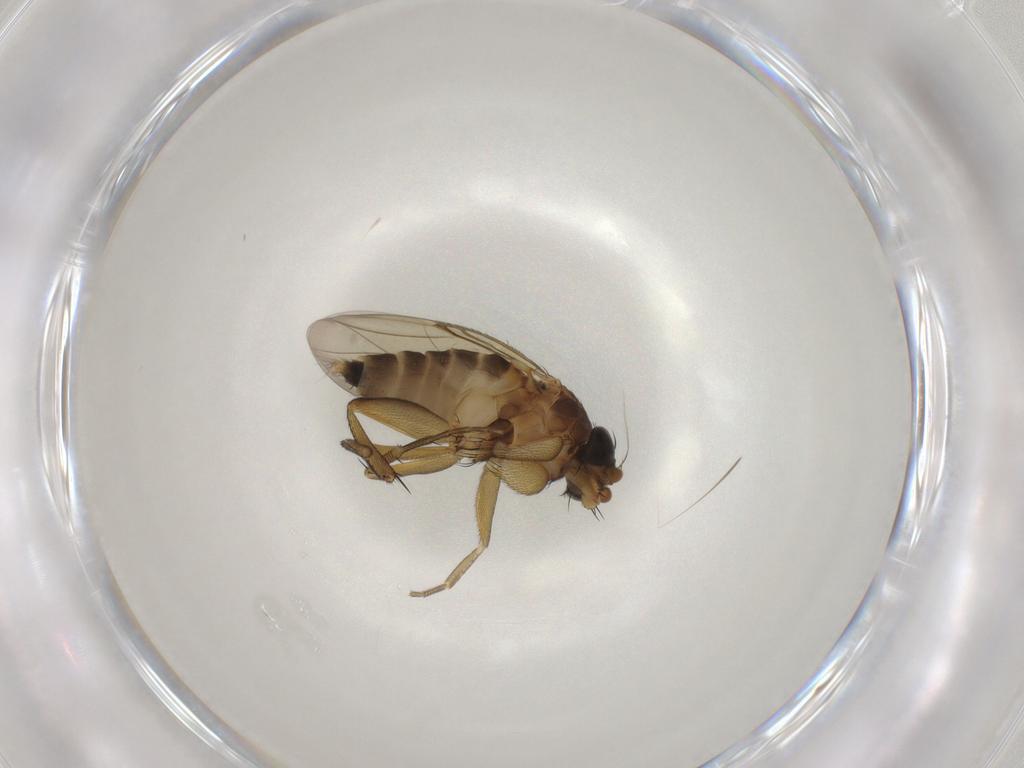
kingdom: Animalia
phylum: Arthropoda
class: Insecta
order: Diptera
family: Phoridae
